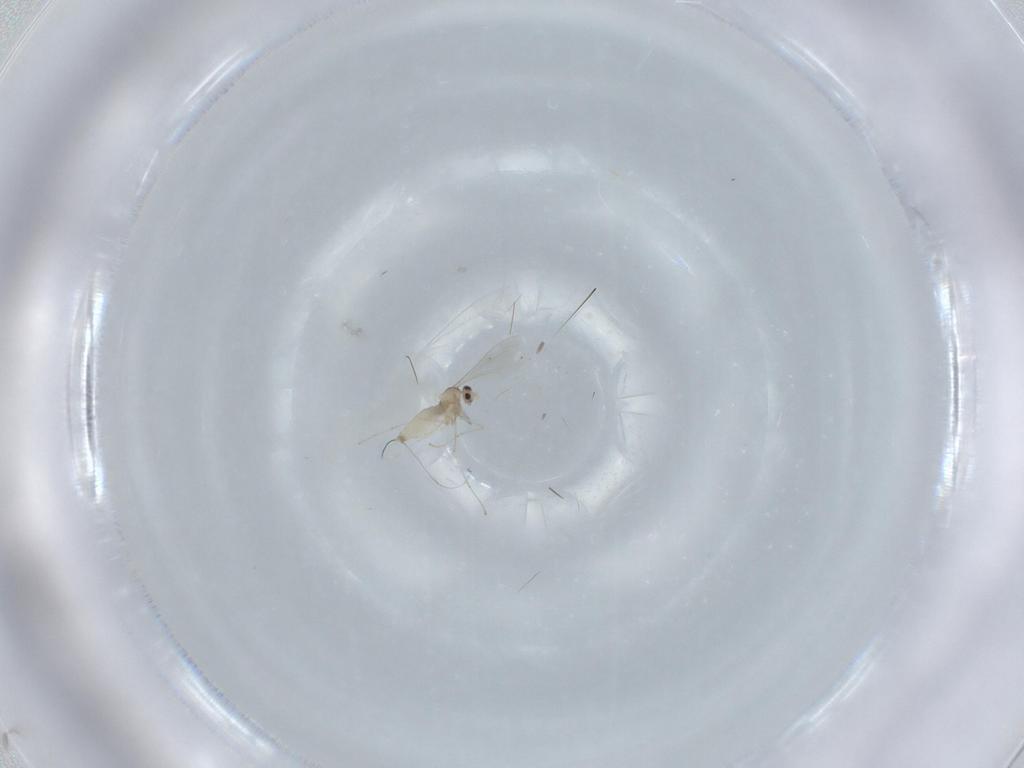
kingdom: Animalia
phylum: Arthropoda
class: Insecta
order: Diptera
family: Cecidomyiidae
